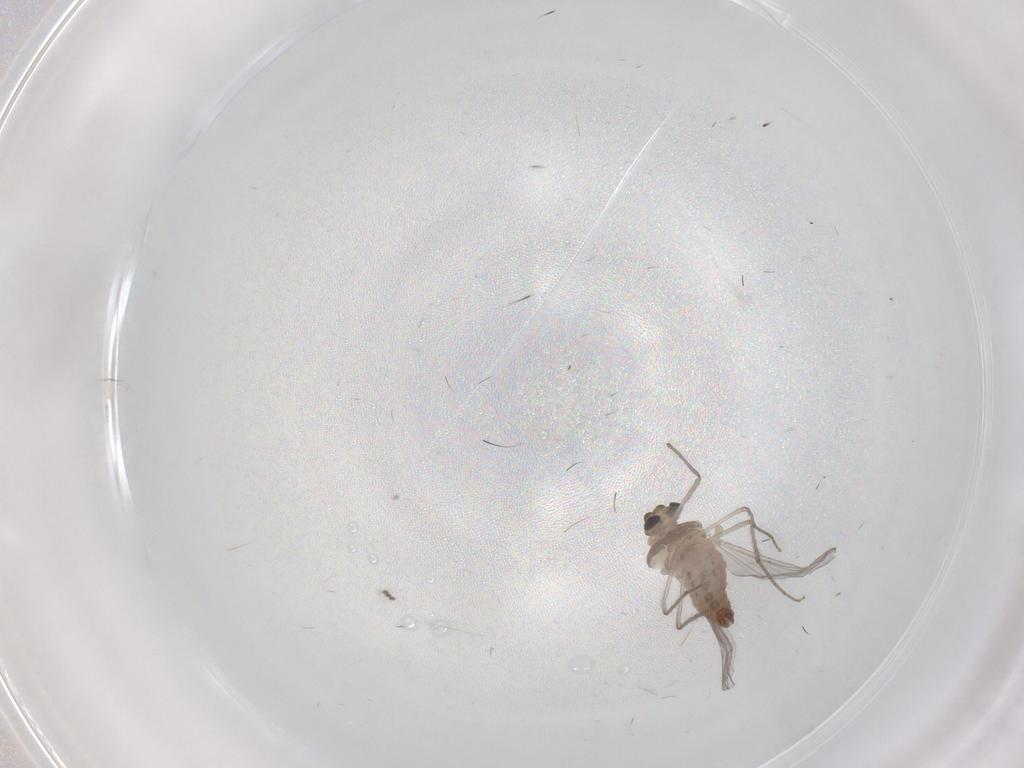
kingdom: Animalia
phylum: Arthropoda
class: Insecta
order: Diptera
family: Chironomidae
